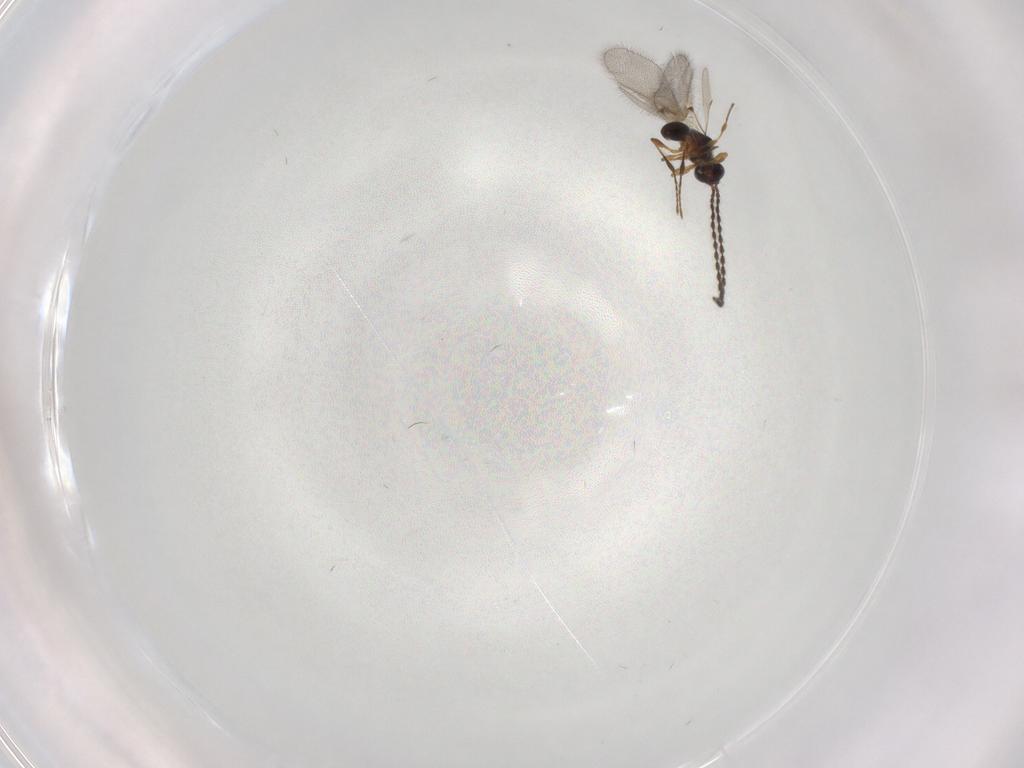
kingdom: Animalia
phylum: Arthropoda
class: Insecta
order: Hymenoptera
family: Diapriidae
